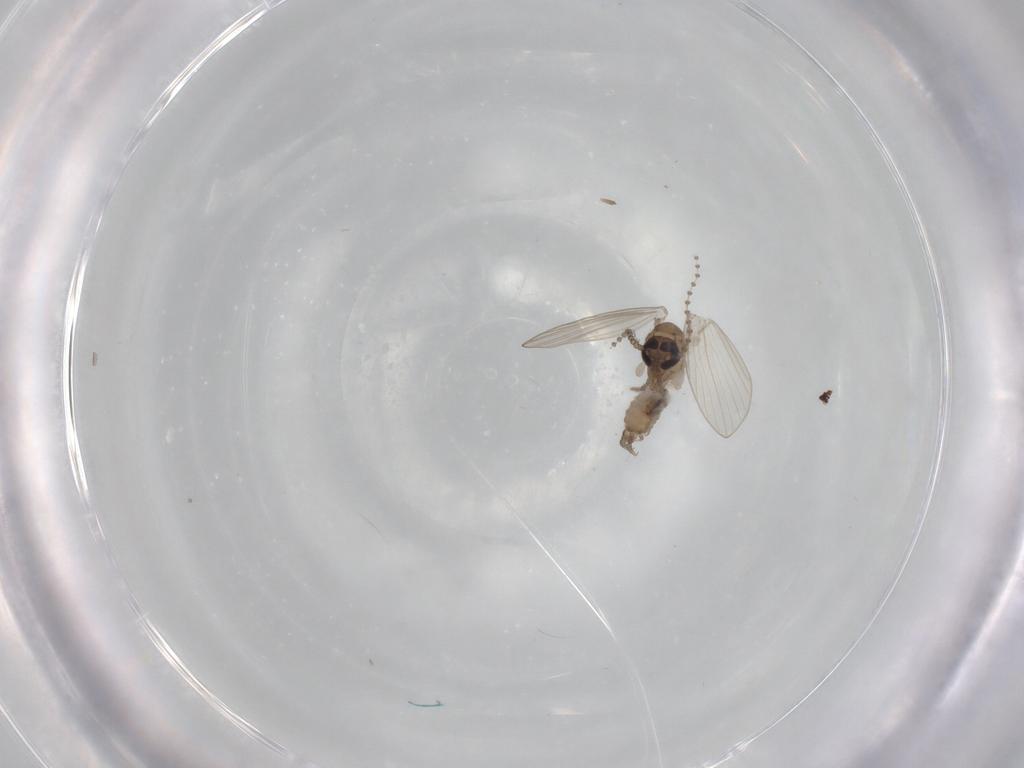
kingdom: Animalia
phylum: Arthropoda
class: Insecta
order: Diptera
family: Psychodidae
